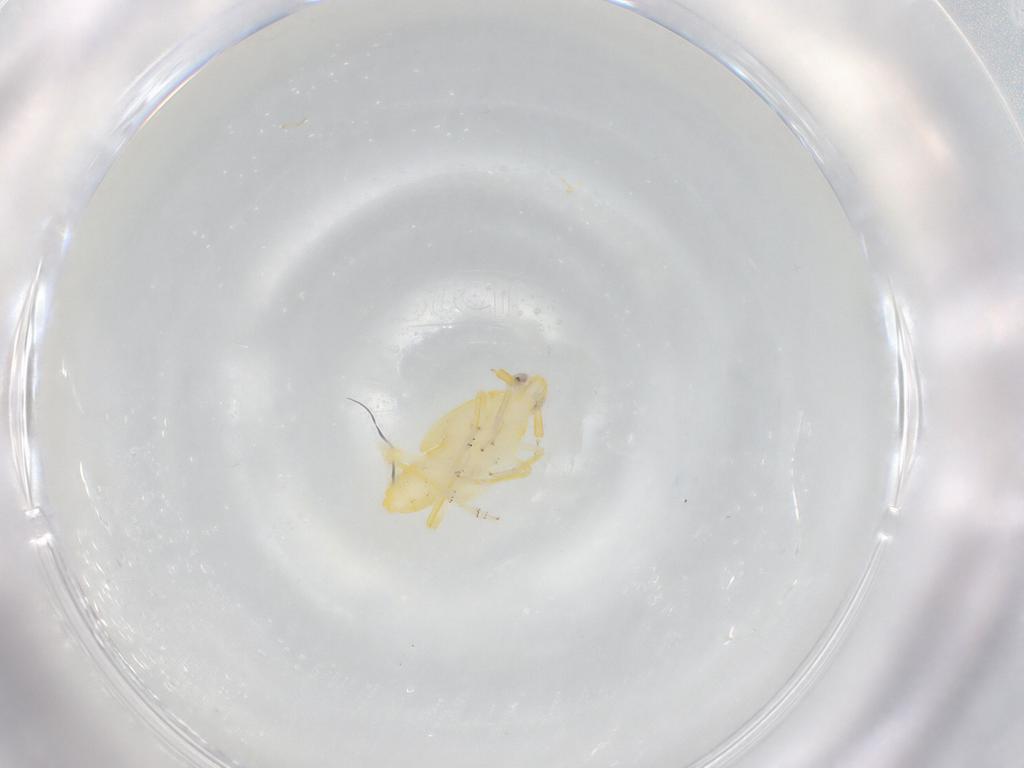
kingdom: Animalia
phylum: Arthropoda
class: Insecta
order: Hemiptera
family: Delphacidae
